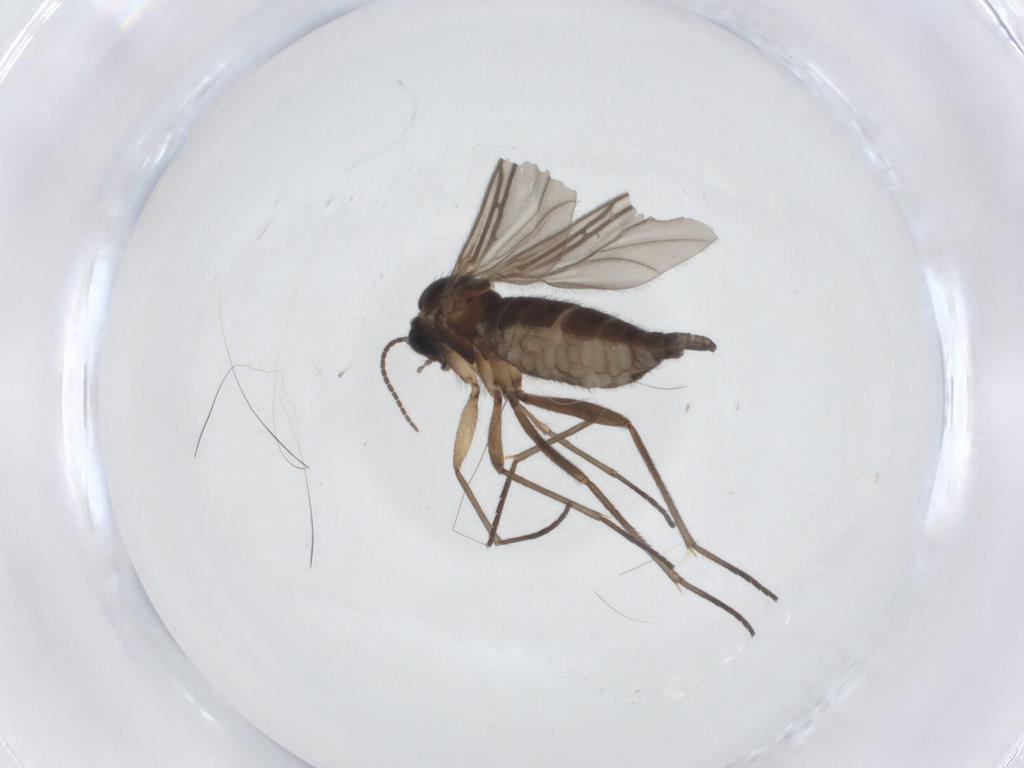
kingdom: Animalia
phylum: Arthropoda
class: Insecta
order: Diptera
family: Sciaridae
